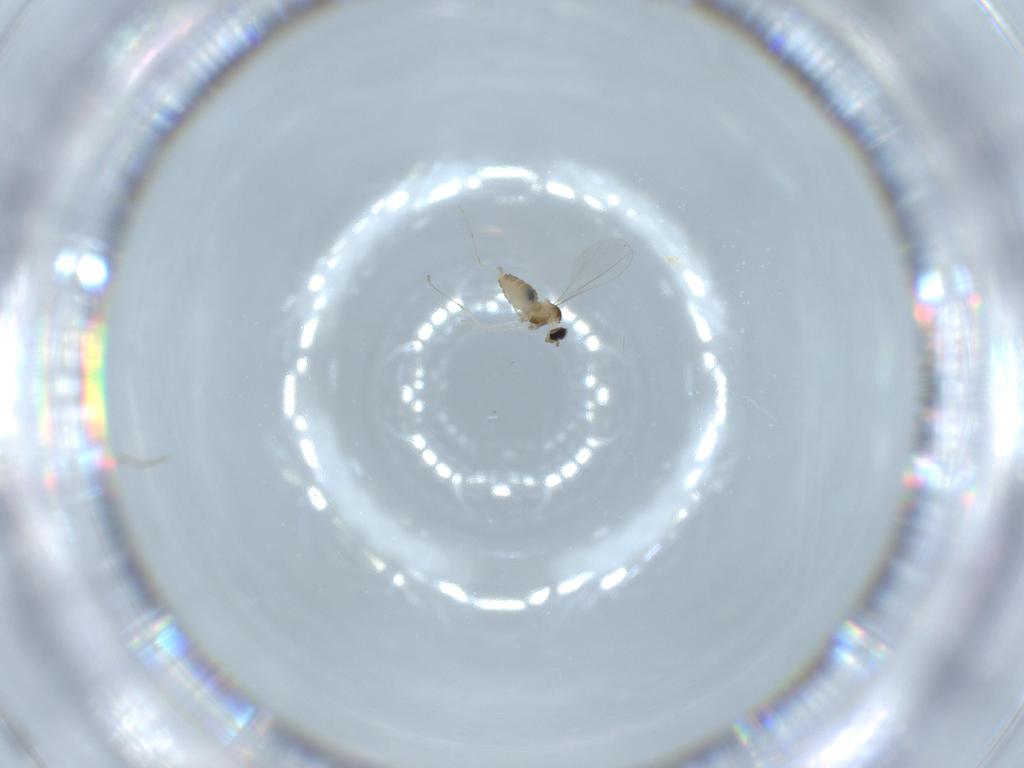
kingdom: Animalia
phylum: Arthropoda
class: Insecta
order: Diptera
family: Cecidomyiidae
